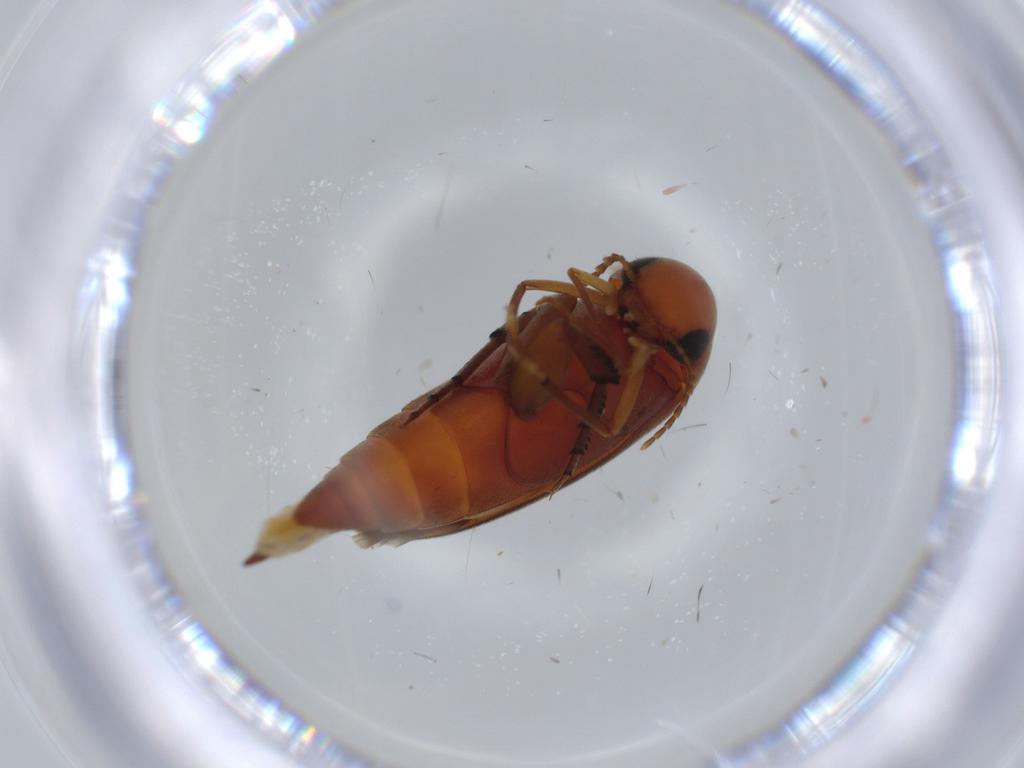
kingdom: Animalia
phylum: Arthropoda
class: Insecta
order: Coleoptera
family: Mordellidae
